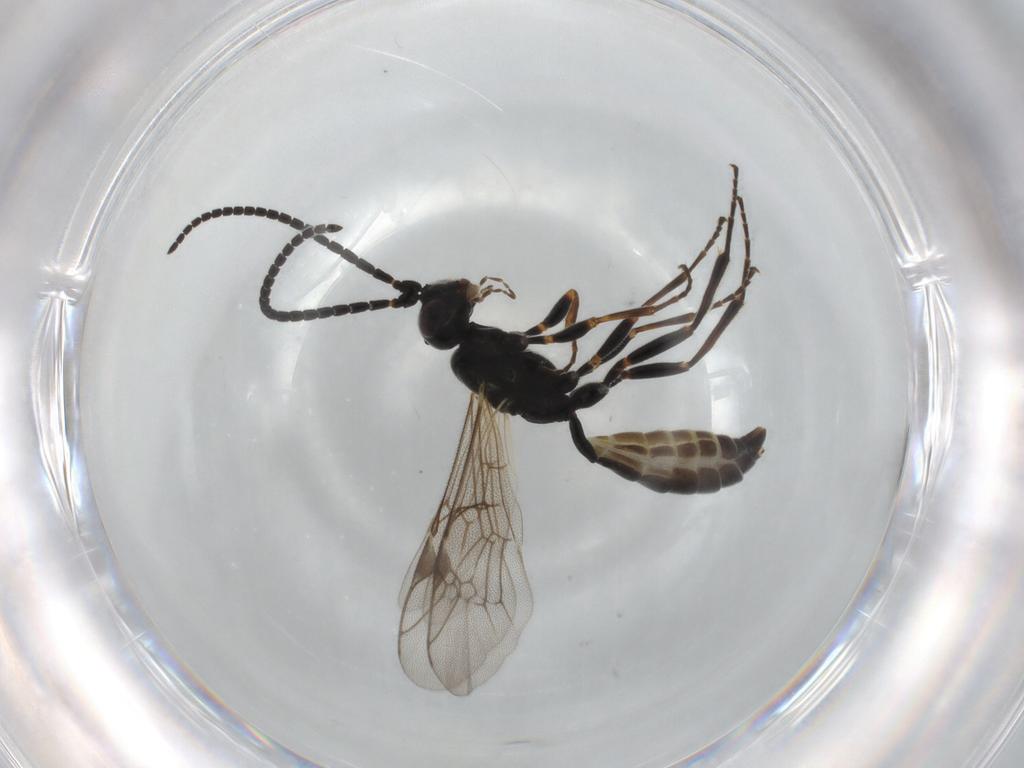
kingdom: Animalia
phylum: Arthropoda
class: Insecta
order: Hymenoptera
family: Ichneumonidae
